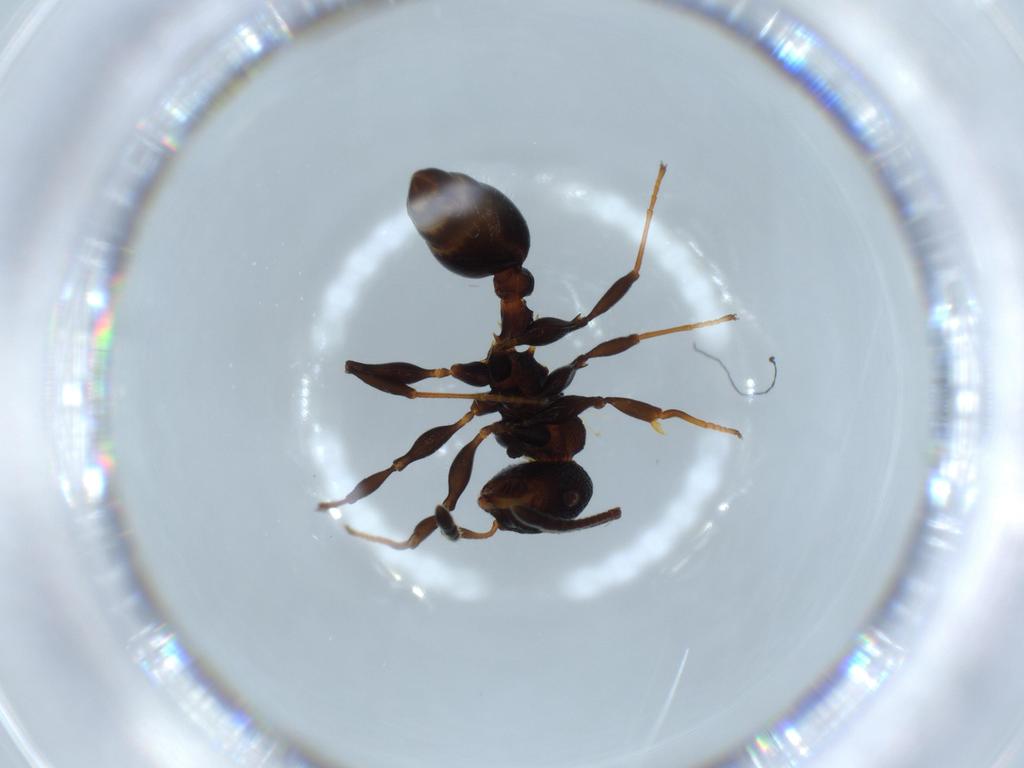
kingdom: Animalia
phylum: Arthropoda
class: Insecta
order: Hymenoptera
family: Formicidae
